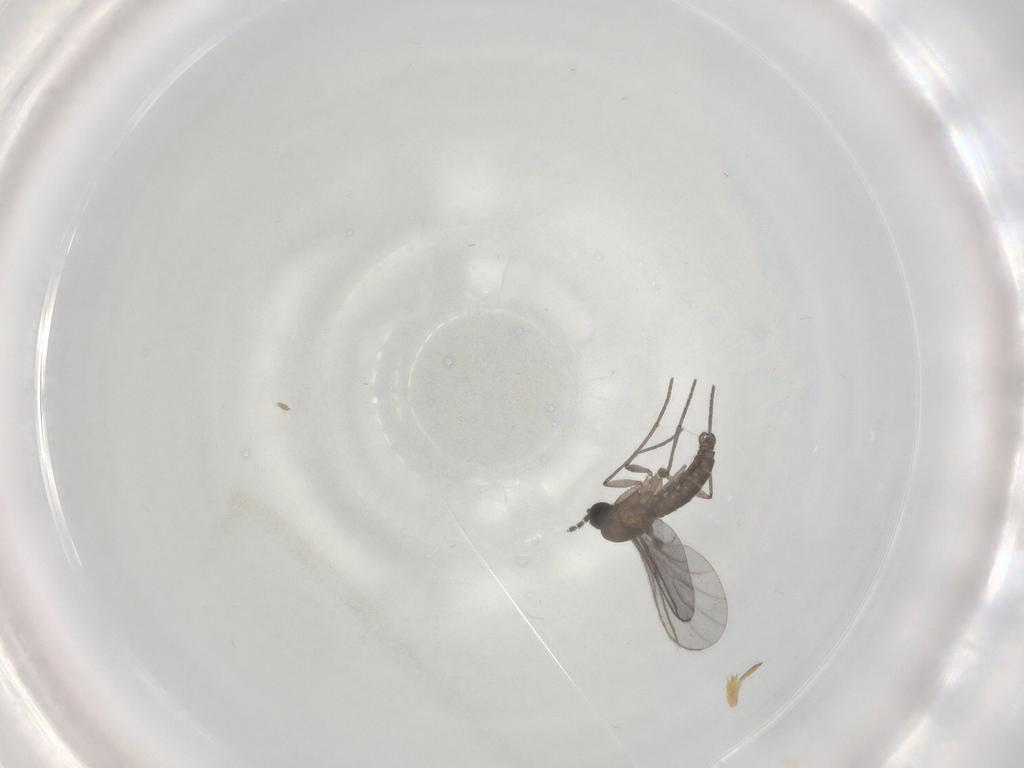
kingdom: Animalia
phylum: Arthropoda
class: Insecta
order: Diptera
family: Sciaridae
